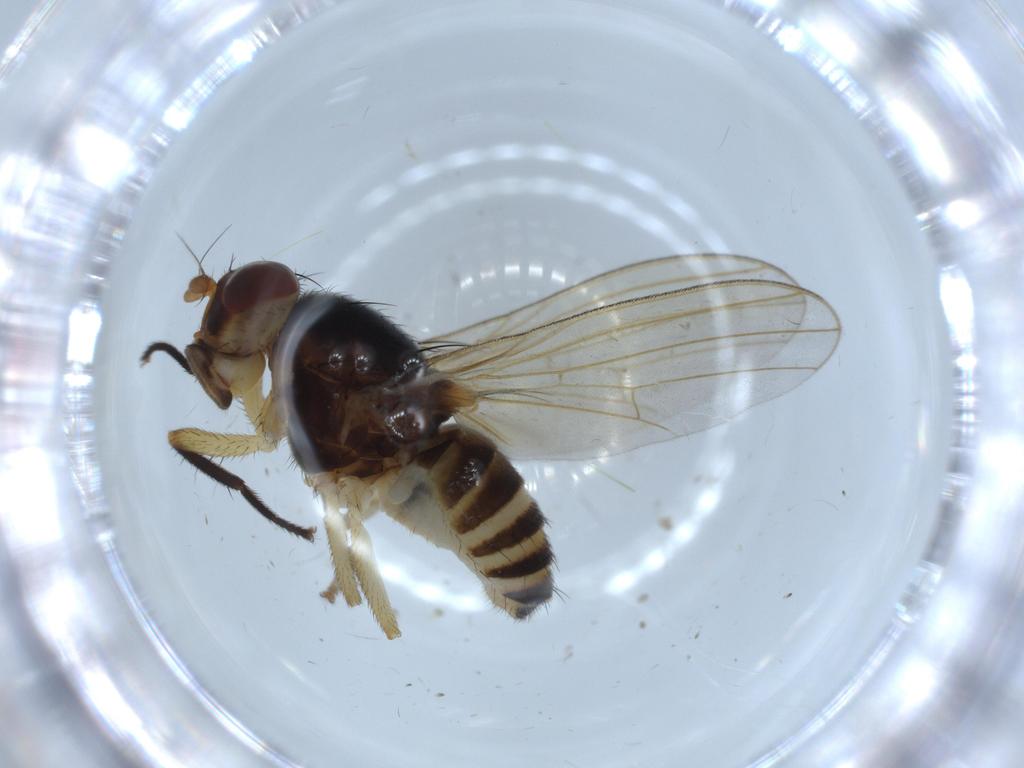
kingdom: Animalia
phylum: Arthropoda
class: Insecta
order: Diptera
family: Lauxaniidae
